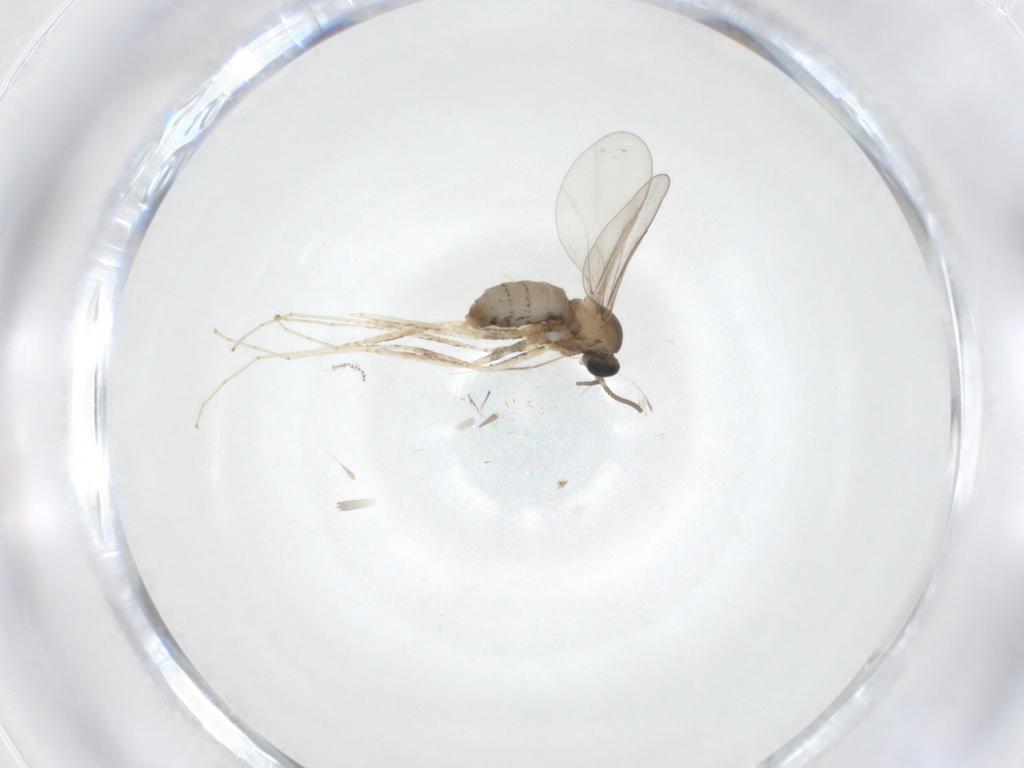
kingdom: Animalia
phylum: Arthropoda
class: Insecta
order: Diptera
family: Cecidomyiidae
